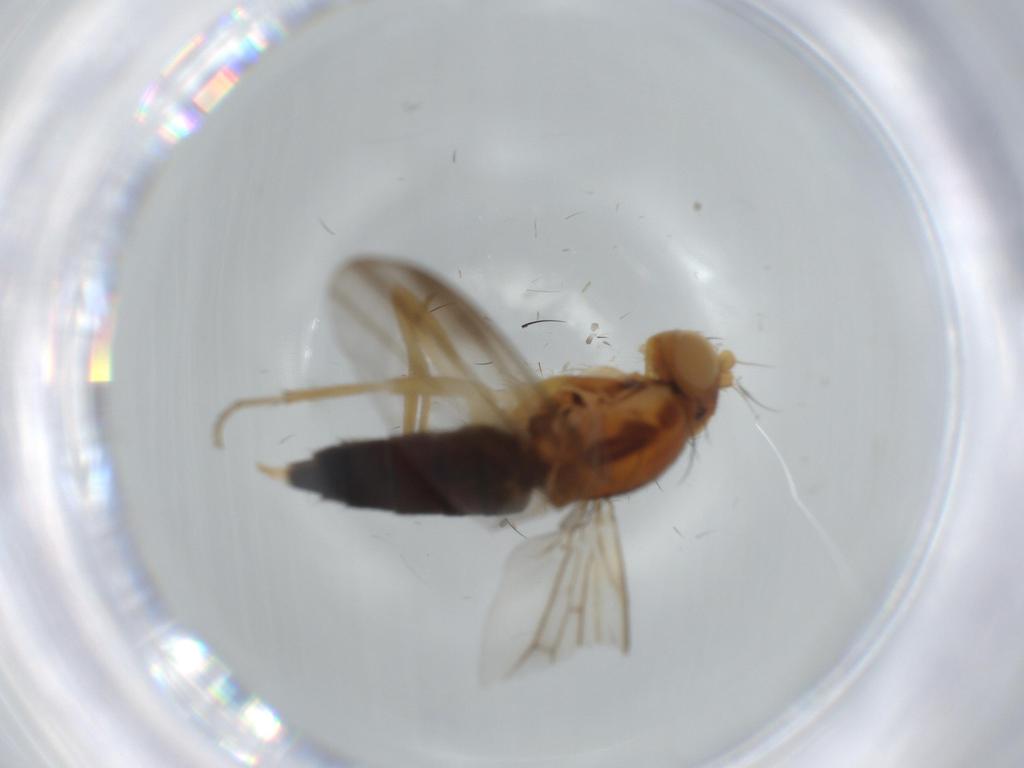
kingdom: Animalia
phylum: Arthropoda
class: Insecta
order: Diptera
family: Clusiidae
